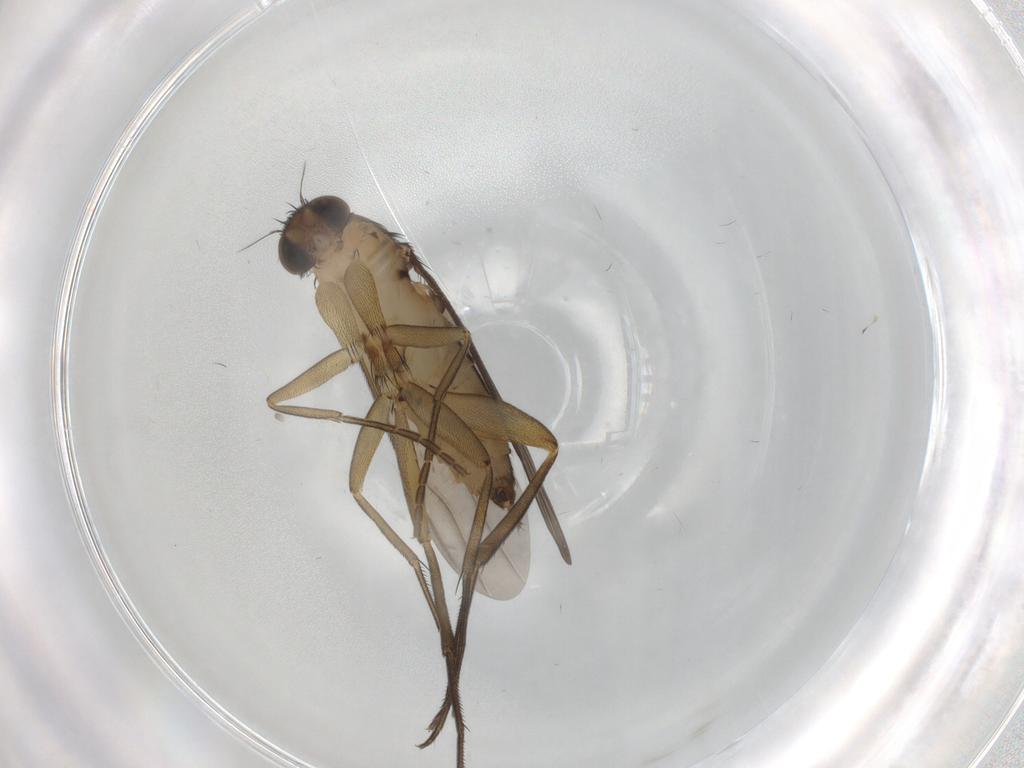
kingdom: Animalia
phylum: Arthropoda
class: Insecta
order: Diptera
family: Phoridae
